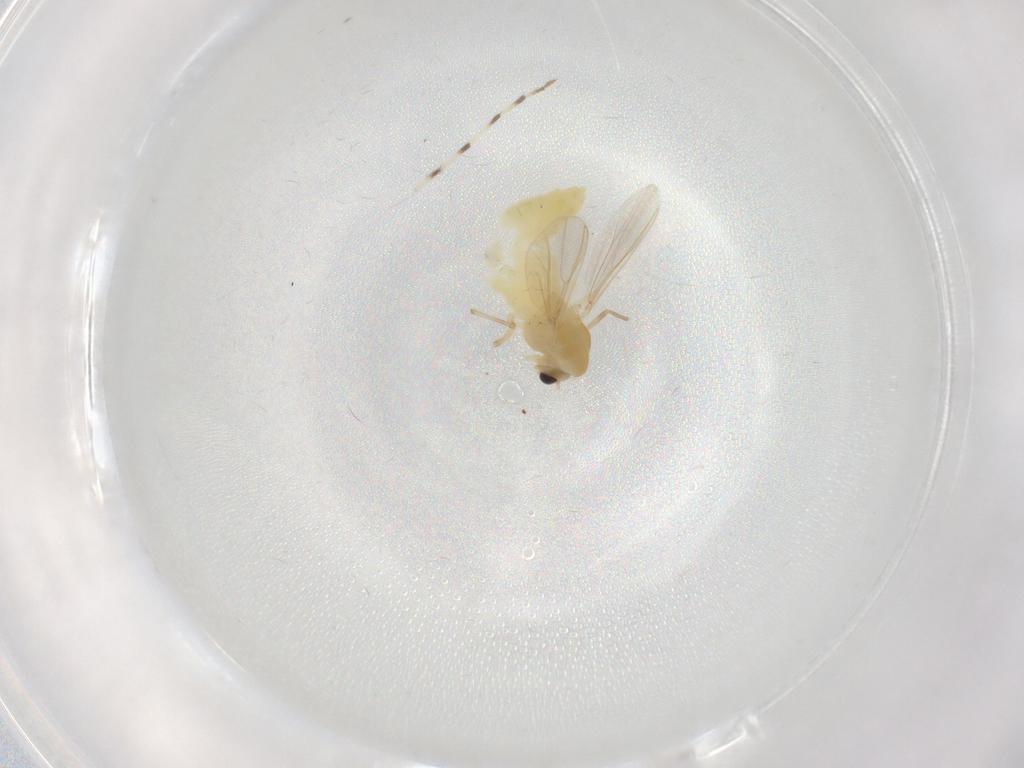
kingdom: Animalia
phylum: Arthropoda
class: Insecta
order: Diptera
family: Chironomidae
